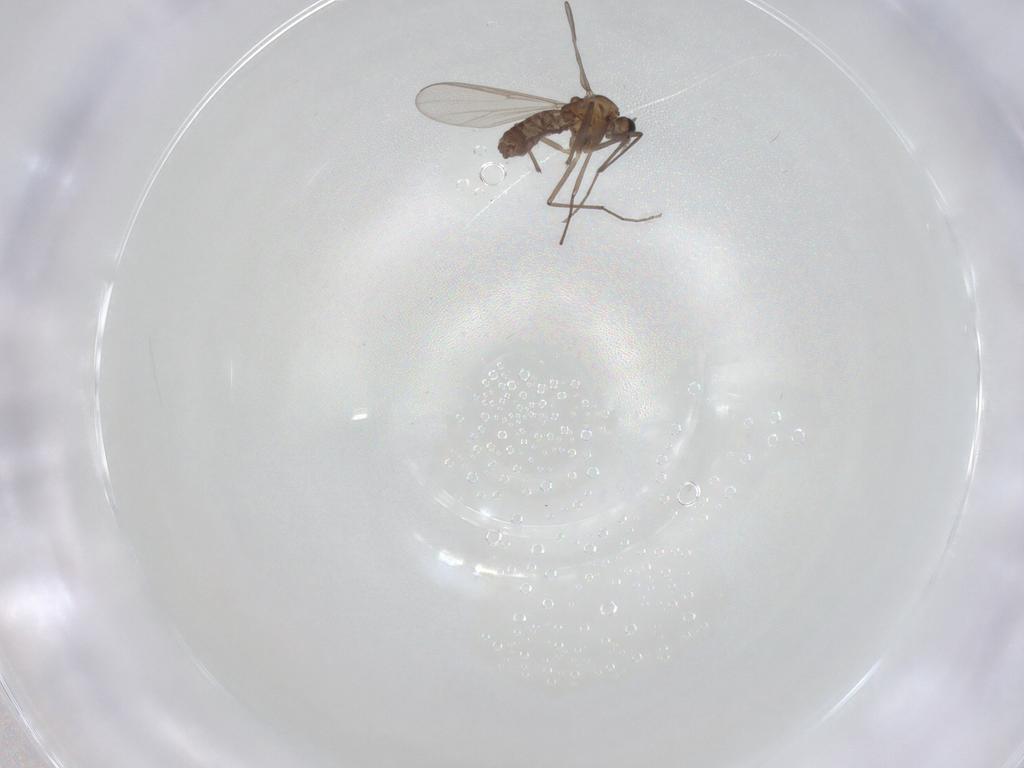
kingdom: Animalia
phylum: Arthropoda
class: Insecta
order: Diptera
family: Chironomidae
